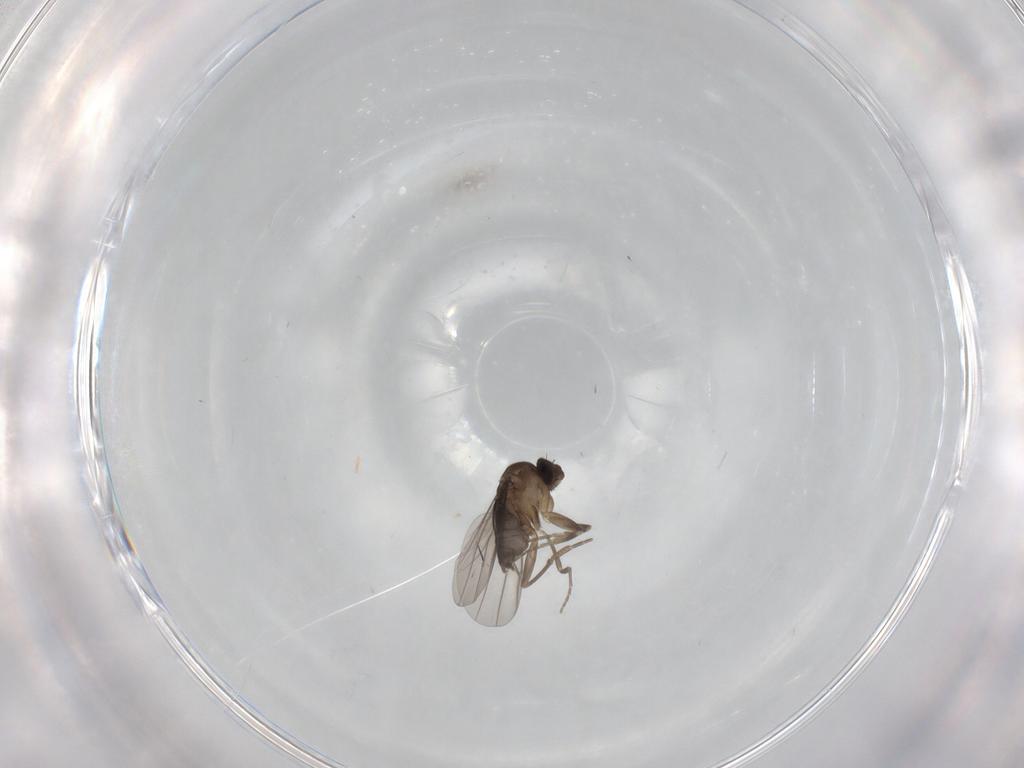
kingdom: Animalia
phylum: Arthropoda
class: Insecta
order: Diptera
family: Phoridae
